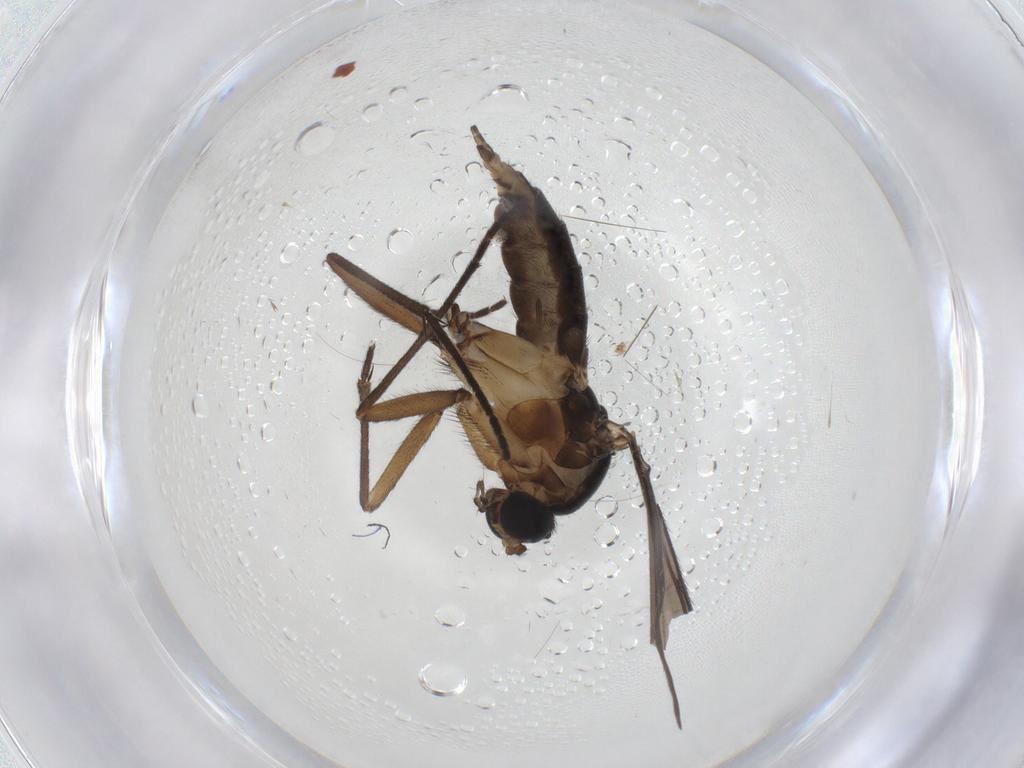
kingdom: Animalia
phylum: Arthropoda
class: Insecta
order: Diptera
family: Sciaridae
